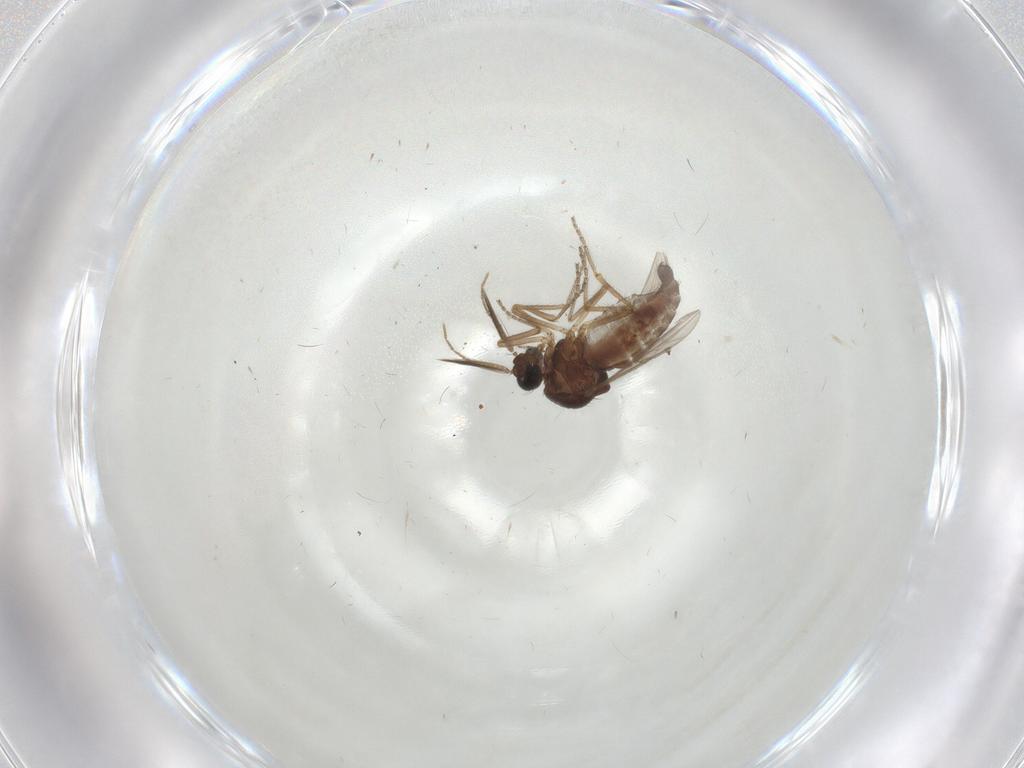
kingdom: Animalia
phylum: Arthropoda
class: Insecta
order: Diptera
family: Ceratopogonidae
